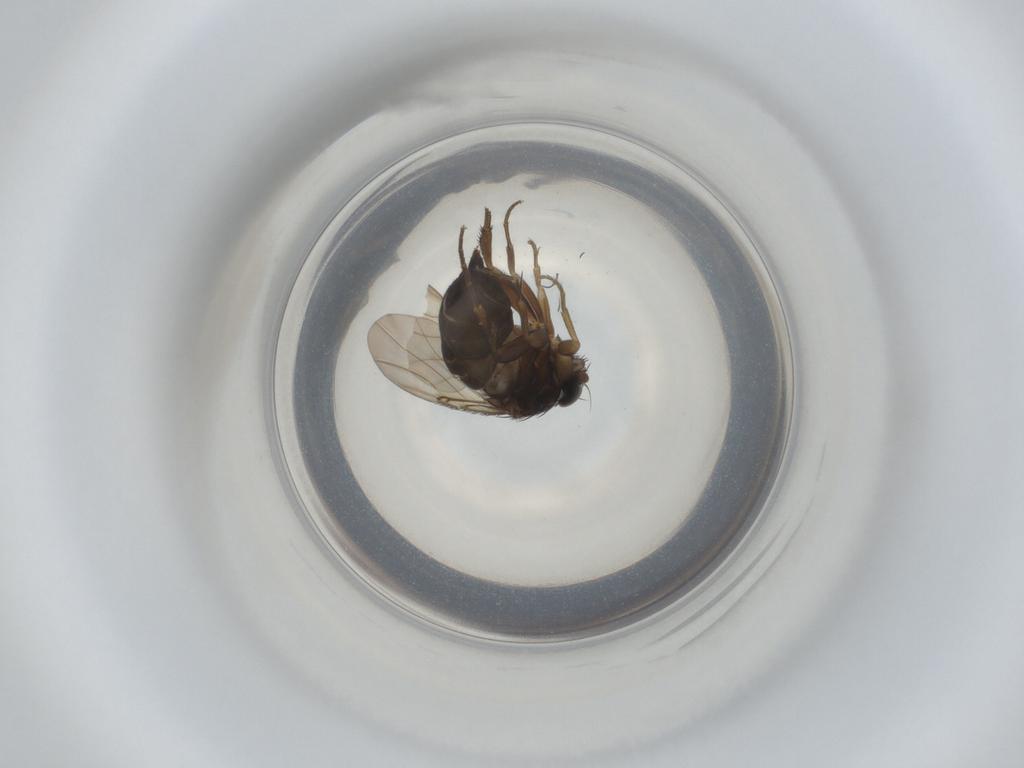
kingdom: Animalia
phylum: Arthropoda
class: Insecta
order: Diptera
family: Phoridae
